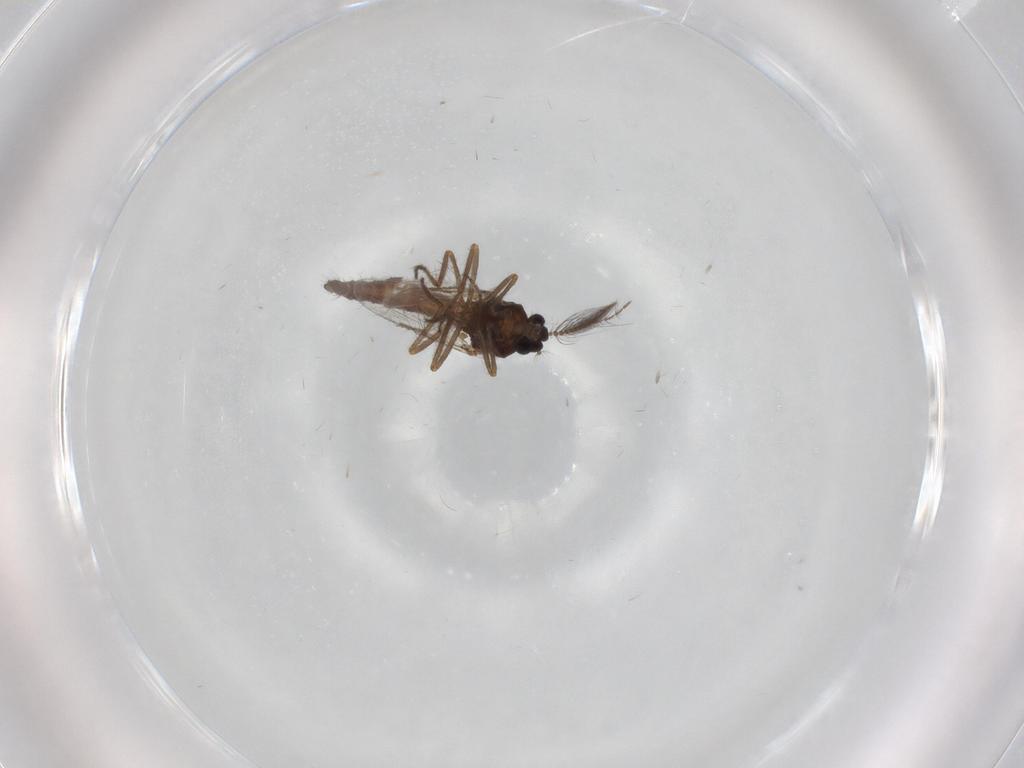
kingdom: Animalia
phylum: Arthropoda
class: Insecta
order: Diptera
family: Ceratopogonidae
